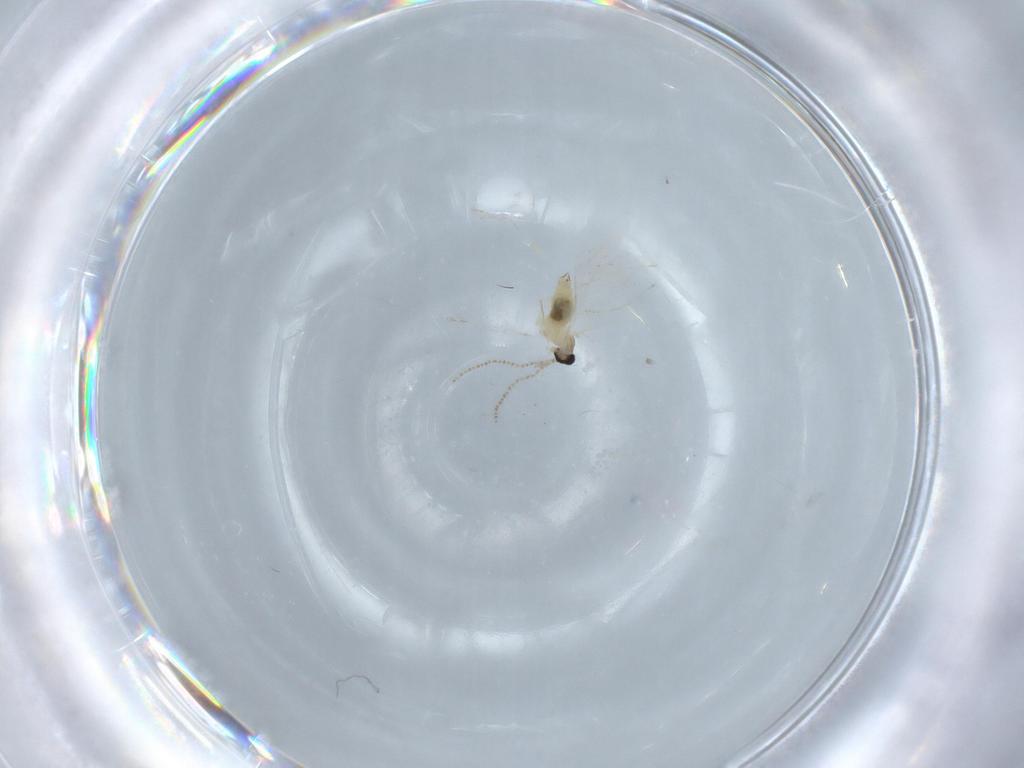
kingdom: Animalia
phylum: Arthropoda
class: Insecta
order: Diptera
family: Cecidomyiidae
